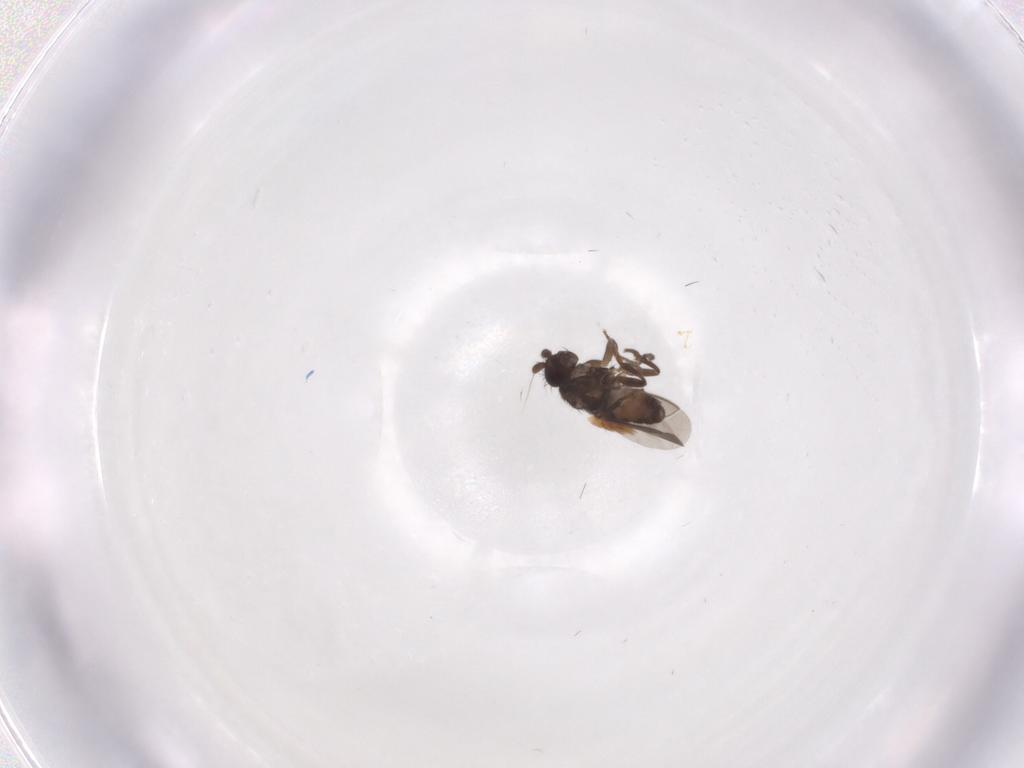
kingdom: Animalia
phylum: Arthropoda
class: Insecta
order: Diptera
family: Sphaeroceridae
